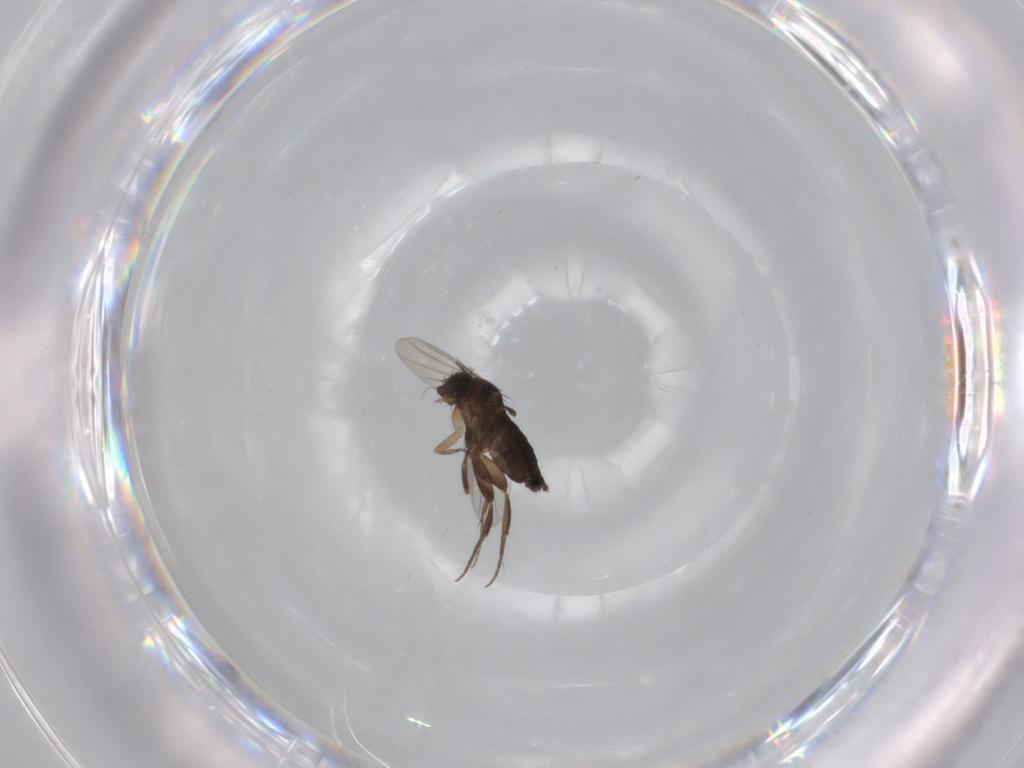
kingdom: Animalia
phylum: Arthropoda
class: Insecta
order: Diptera
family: Phoridae
